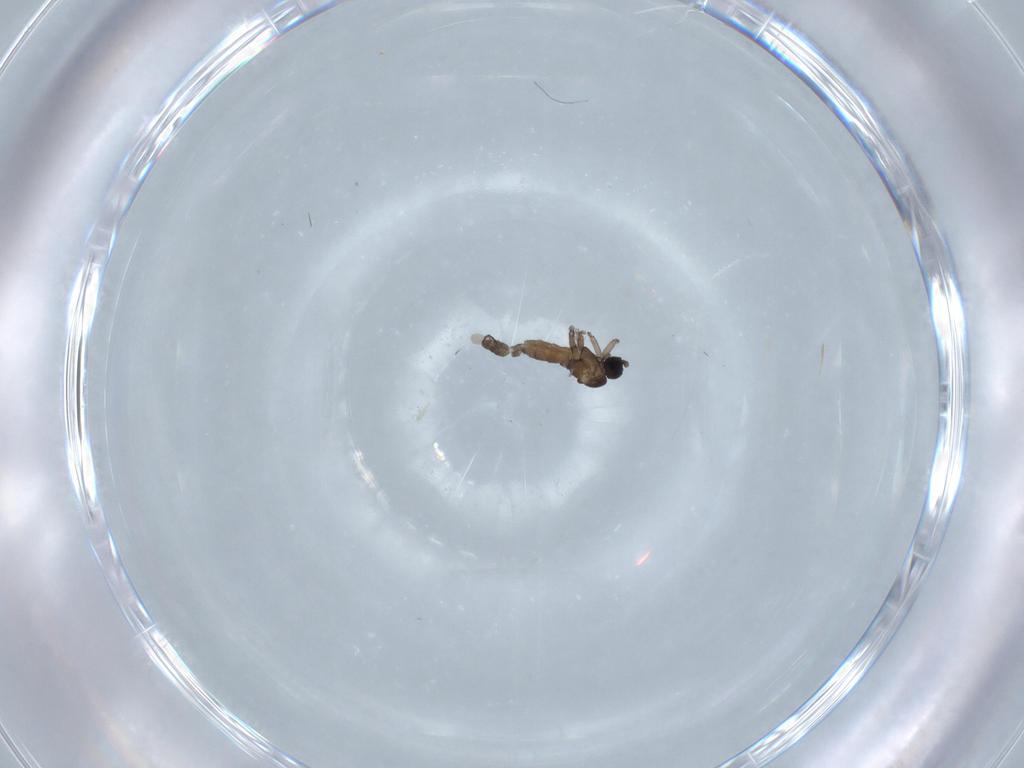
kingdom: Animalia
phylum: Arthropoda
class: Insecta
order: Diptera
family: Sciaridae
